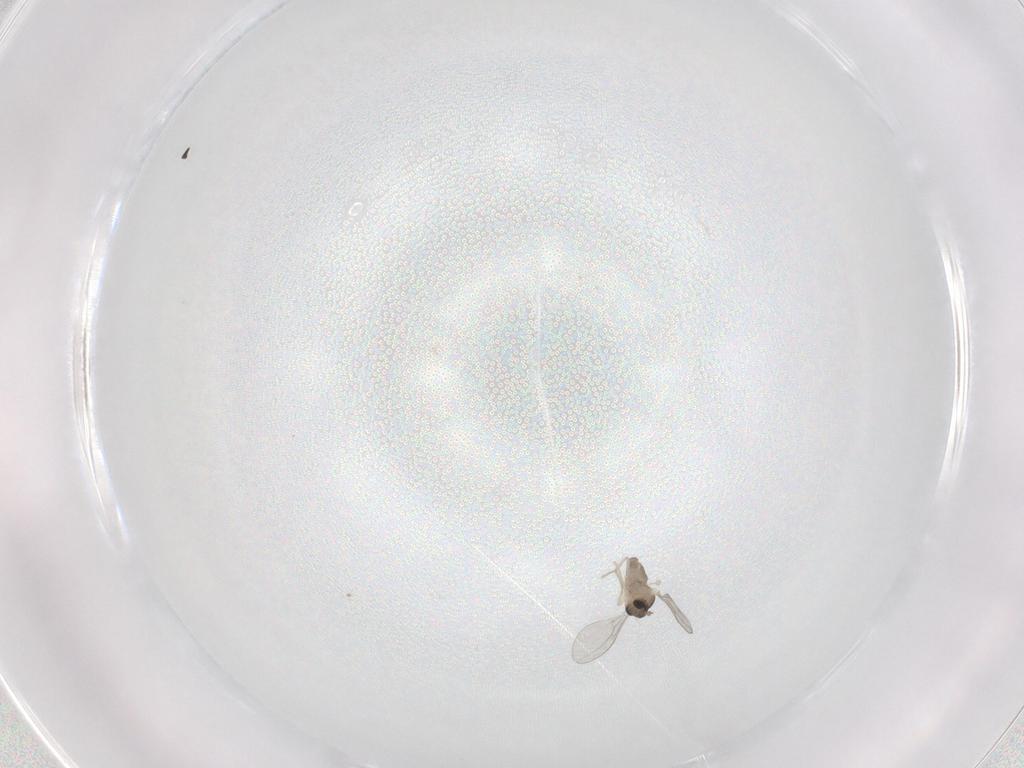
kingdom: Animalia
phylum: Arthropoda
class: Insecta
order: Diptera
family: Cecidomyiidae
